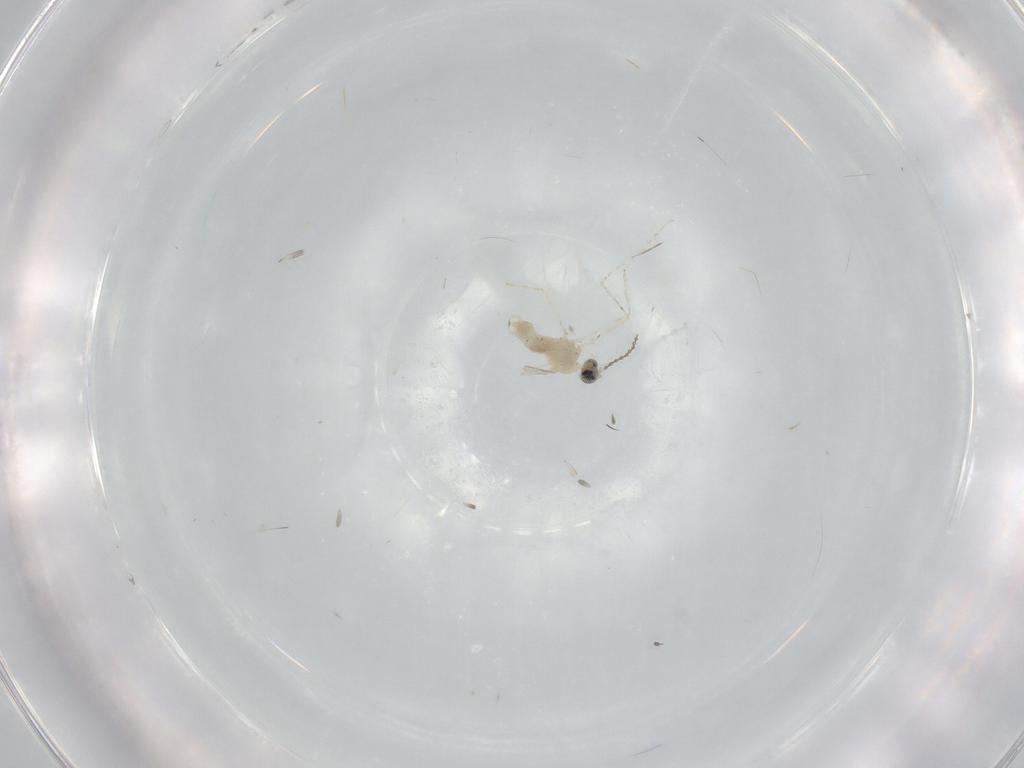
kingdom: Animalia
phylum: Arthropoda
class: Insecta
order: Diptera
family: Cecidomyiidae
